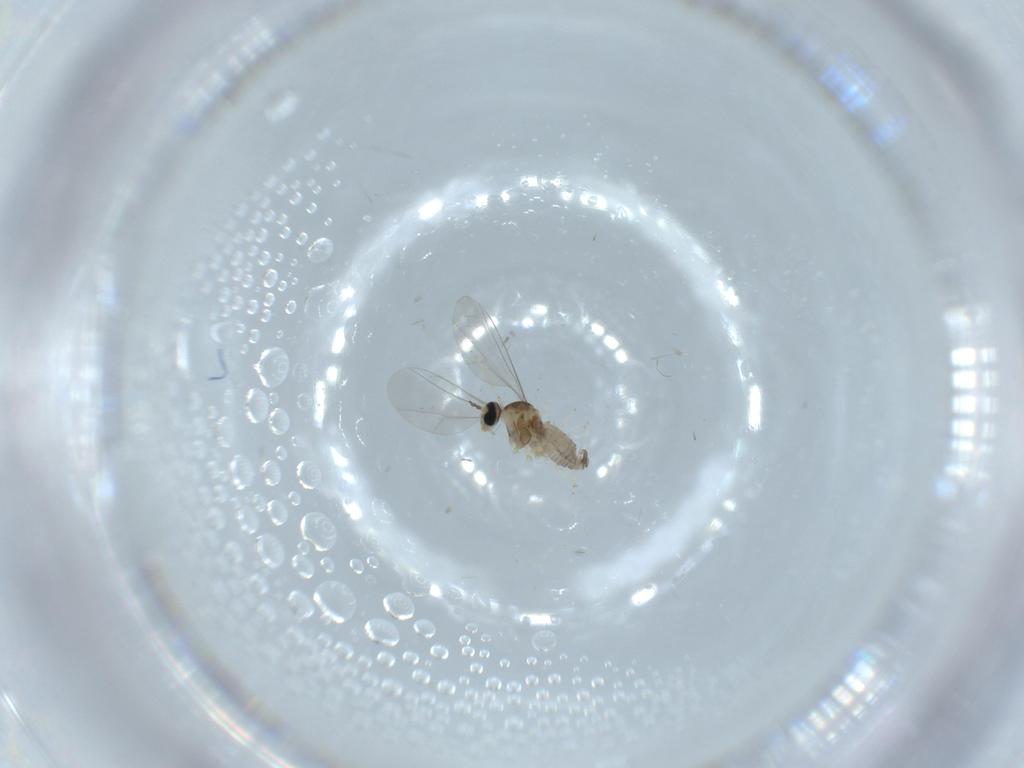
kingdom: Animalia
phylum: Arthropoda
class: Insecta
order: Diptera
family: Cecidomyiidae
